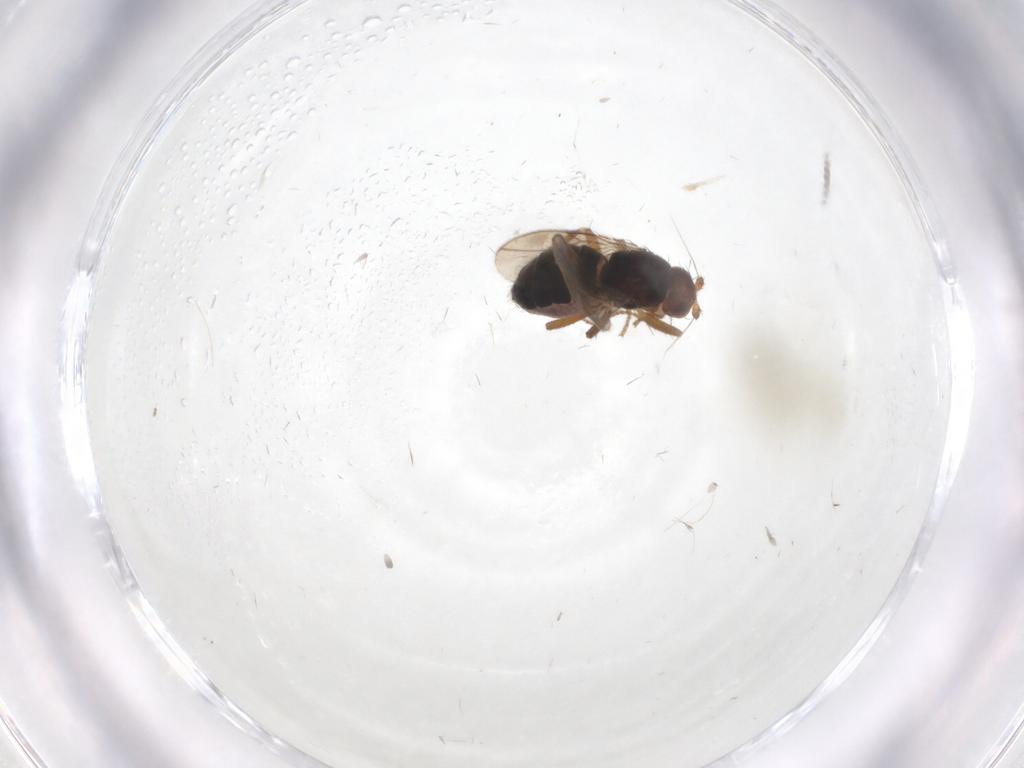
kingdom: Animalia
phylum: Arthropoda
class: Insecta
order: Diptera
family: Sphaeroceridae
